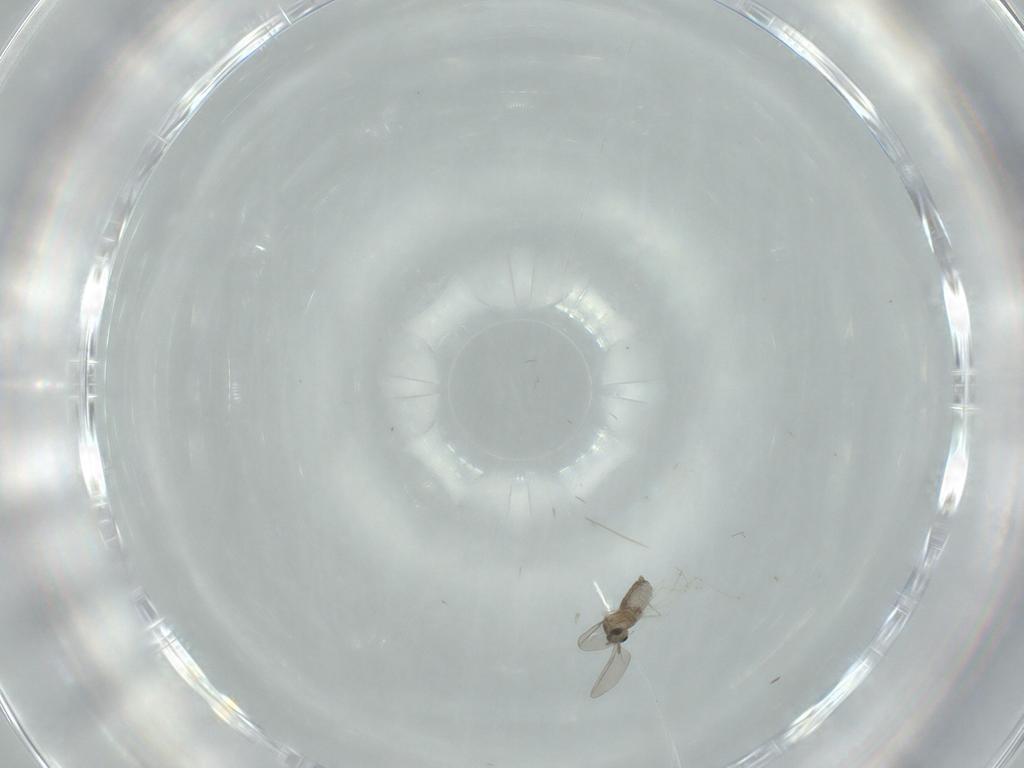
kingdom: Animalia
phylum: Arthropoda
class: Insecta
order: Diptera
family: Cecidomyiidae
